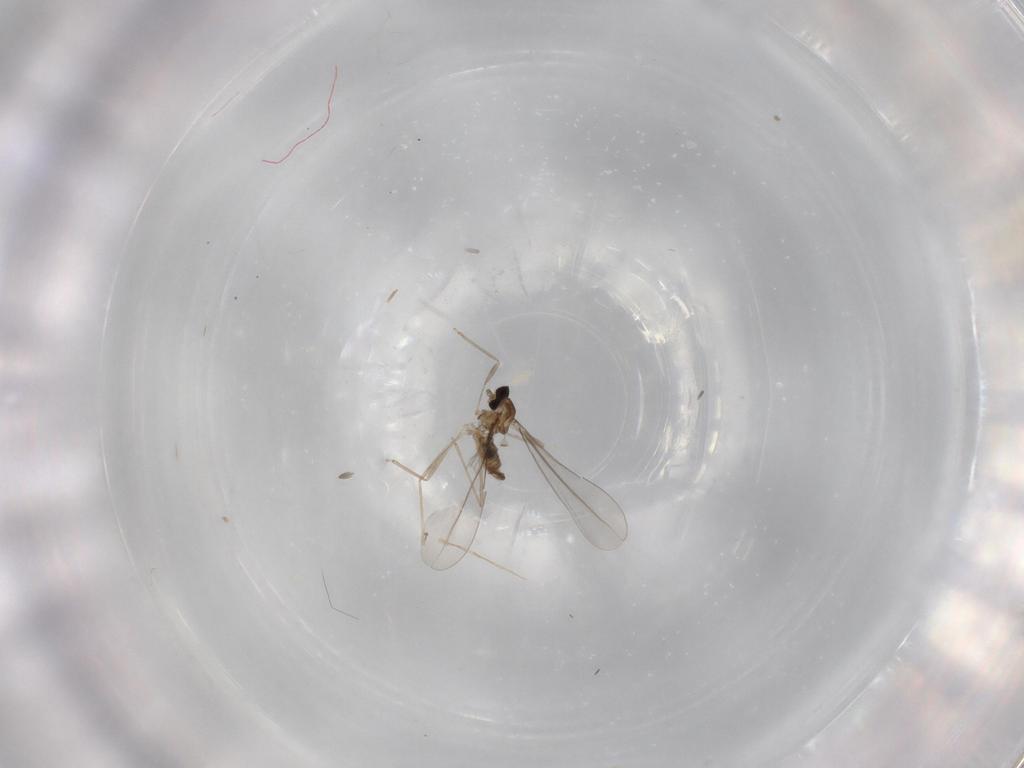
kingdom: Animalia
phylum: Arthropoda
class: Insecta
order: Diptera
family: Cecidomyiidae
